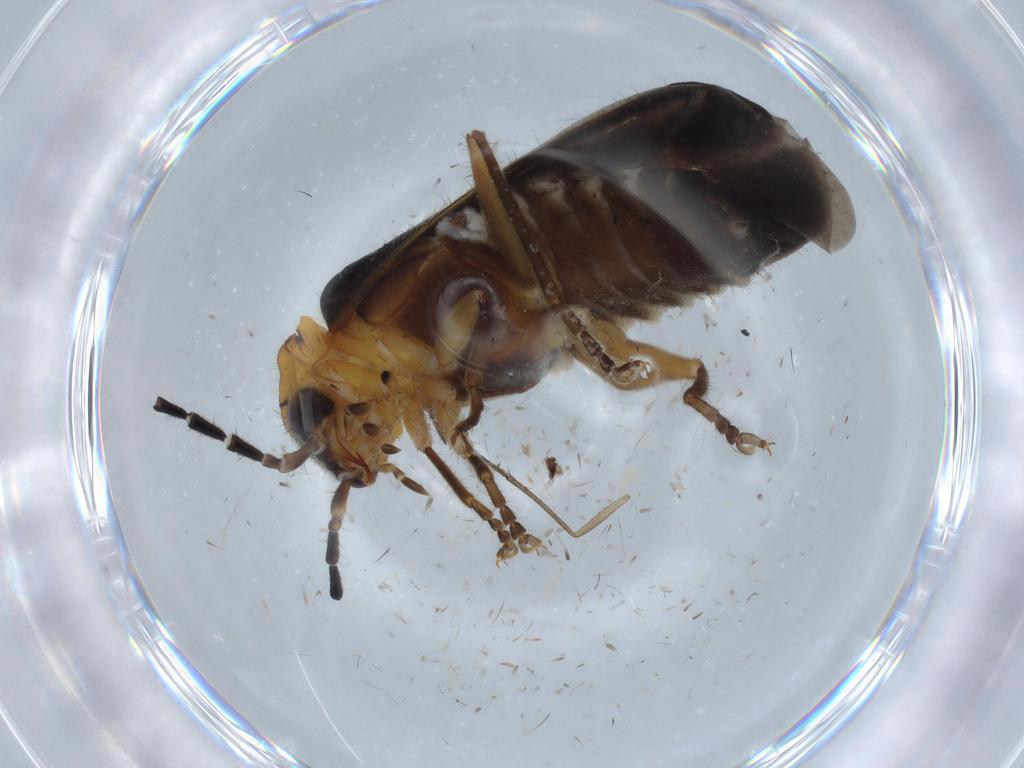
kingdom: Animalia
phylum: Arthropoda
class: Insecta
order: Coleoptera
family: Cantharidae
